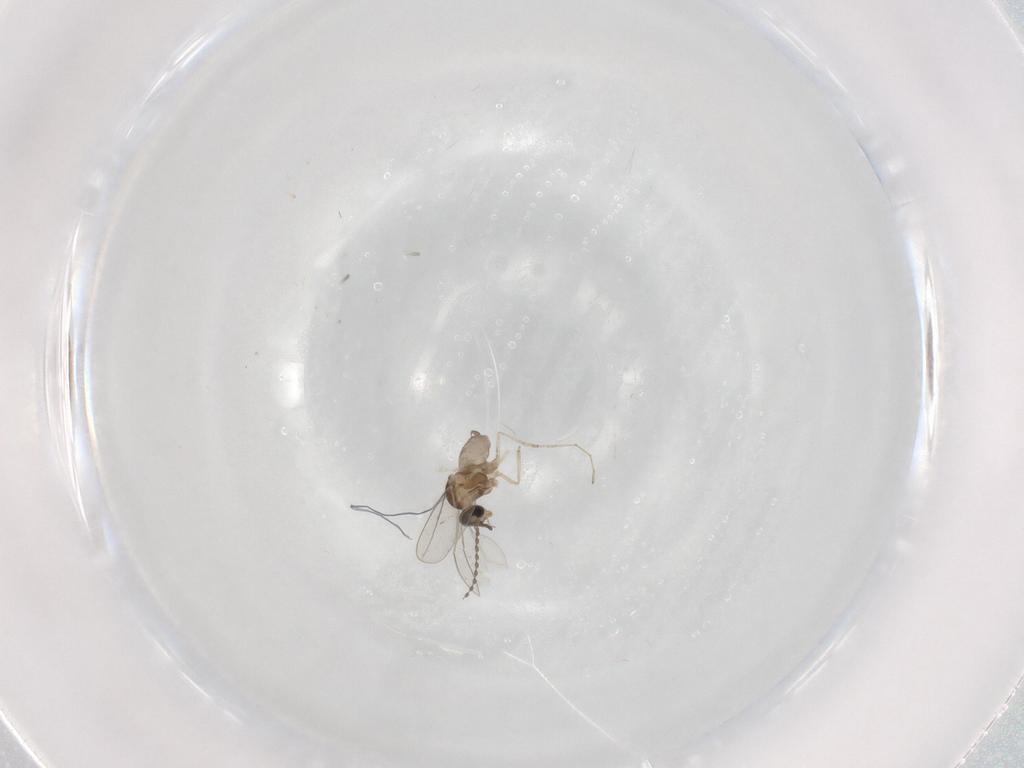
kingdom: Animalia
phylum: Arthropoda
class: Insecta
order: Diptera
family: Cecidomyiidae
